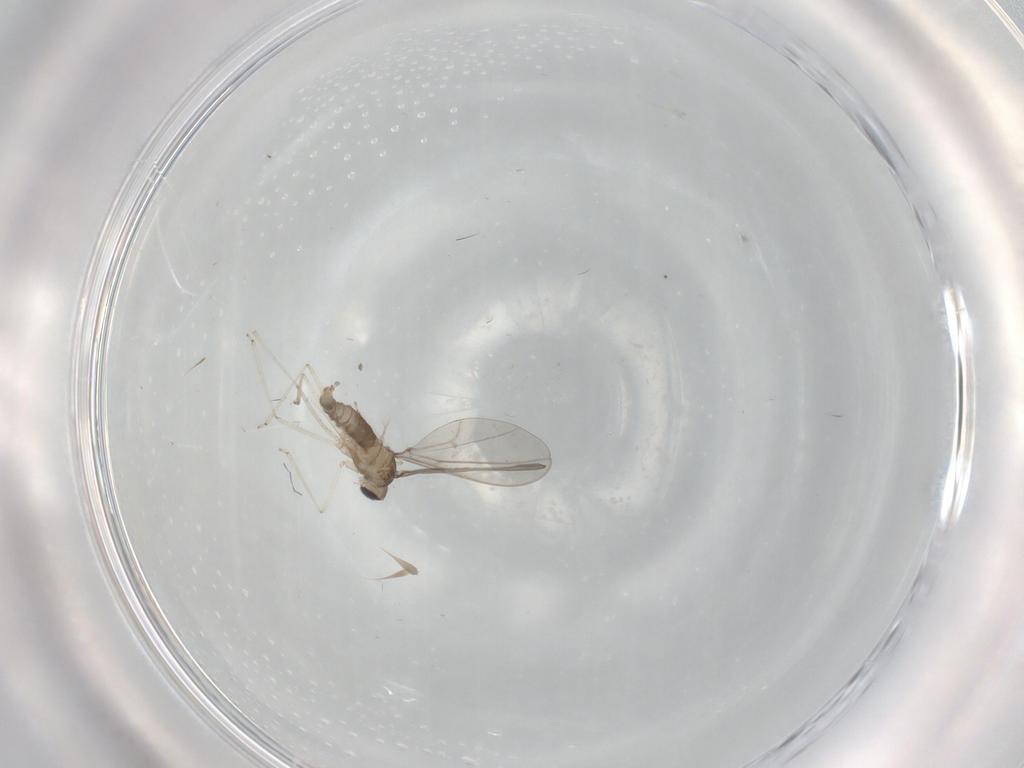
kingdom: Animalia
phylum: Arthropoda
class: Insecta
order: Diptera
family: Cecidomyiidae
